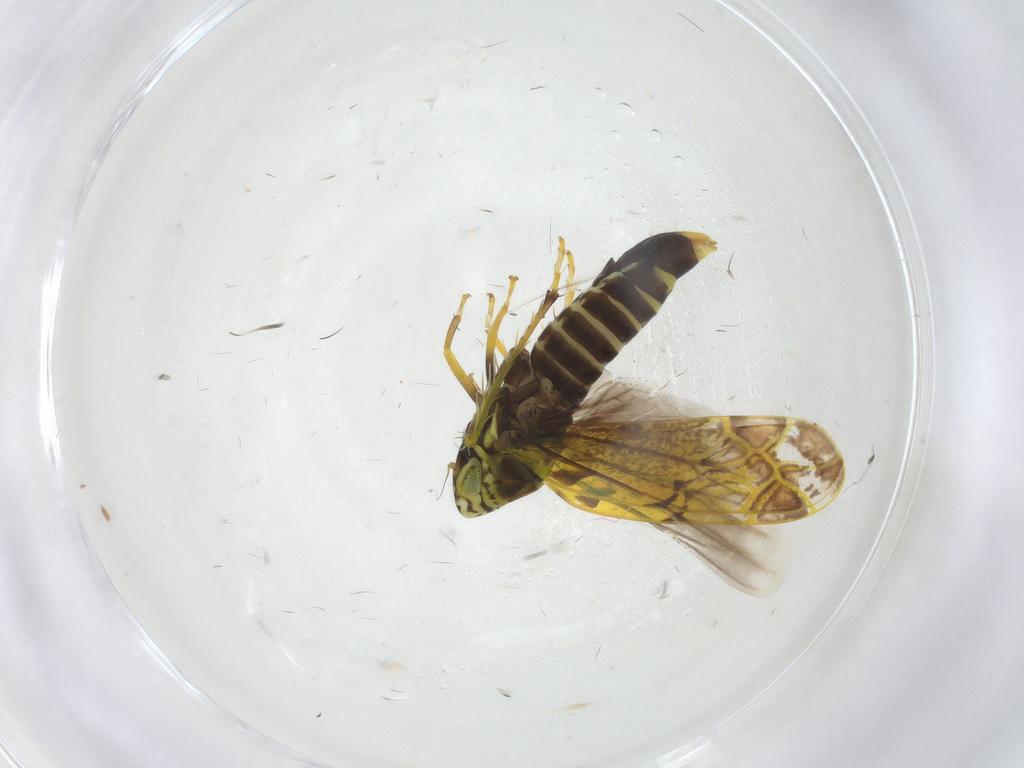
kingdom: Animalia
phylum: Arthropoda
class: Insecta
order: Hemiptera
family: Cicadellidae
